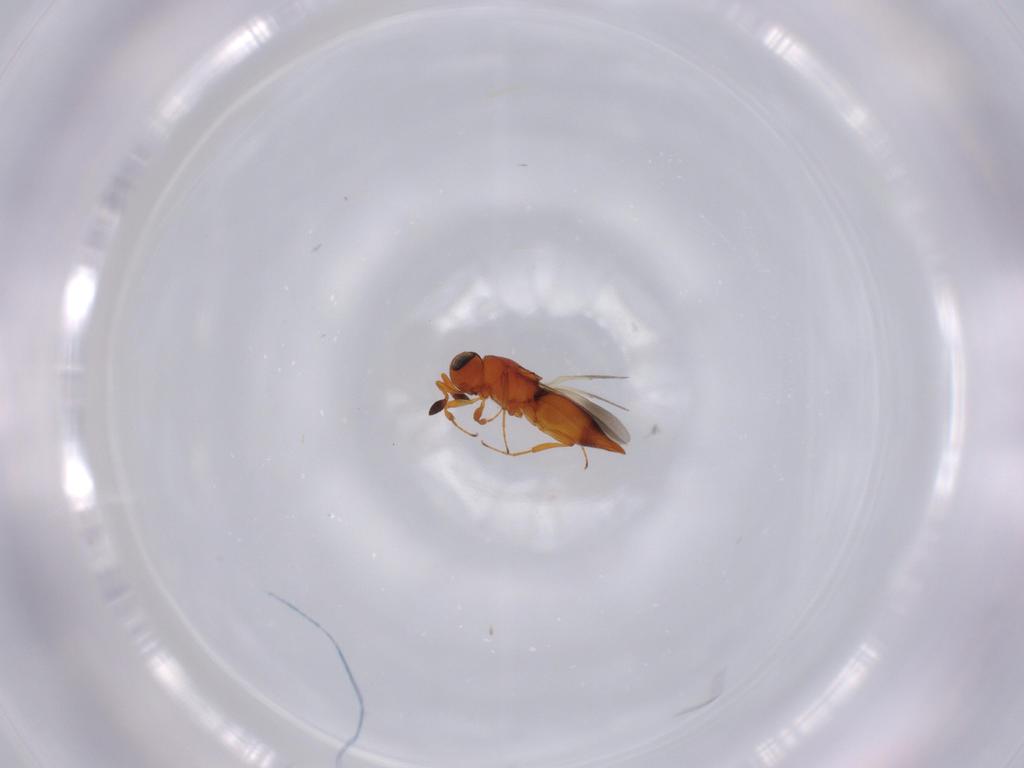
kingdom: Animalia
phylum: Arthropoda
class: Insecta
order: Hymenoptera
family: Platygastridae
